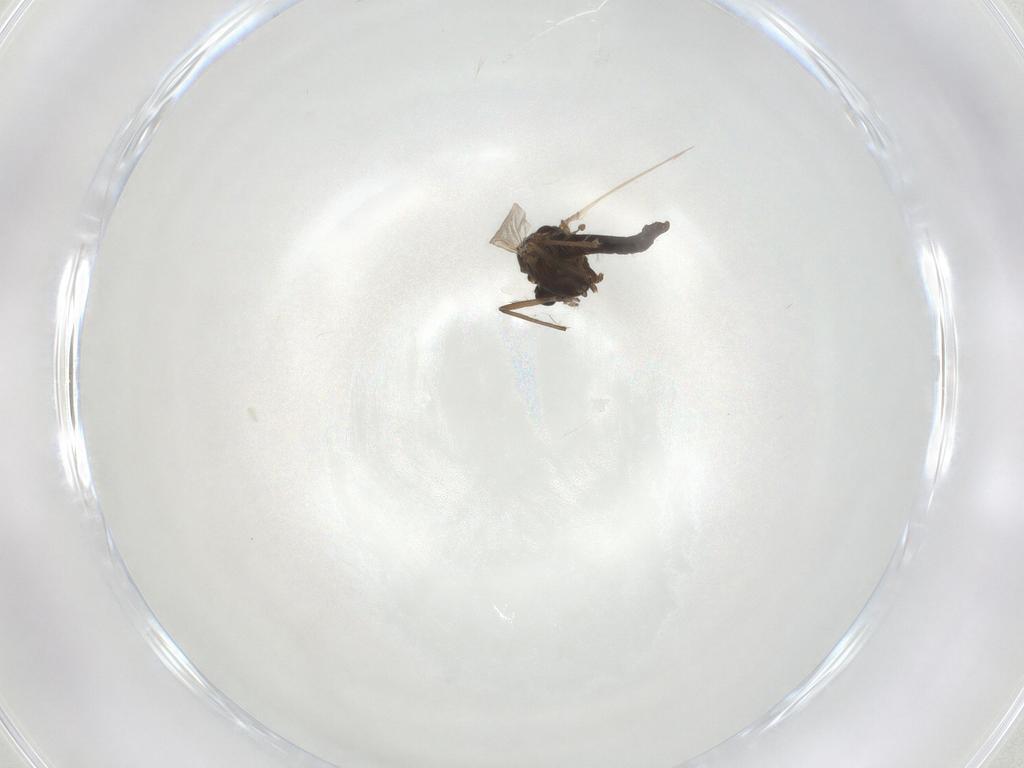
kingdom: Animalia
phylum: Arthropoda
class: Insecta
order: Diptera
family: Chironomidae
